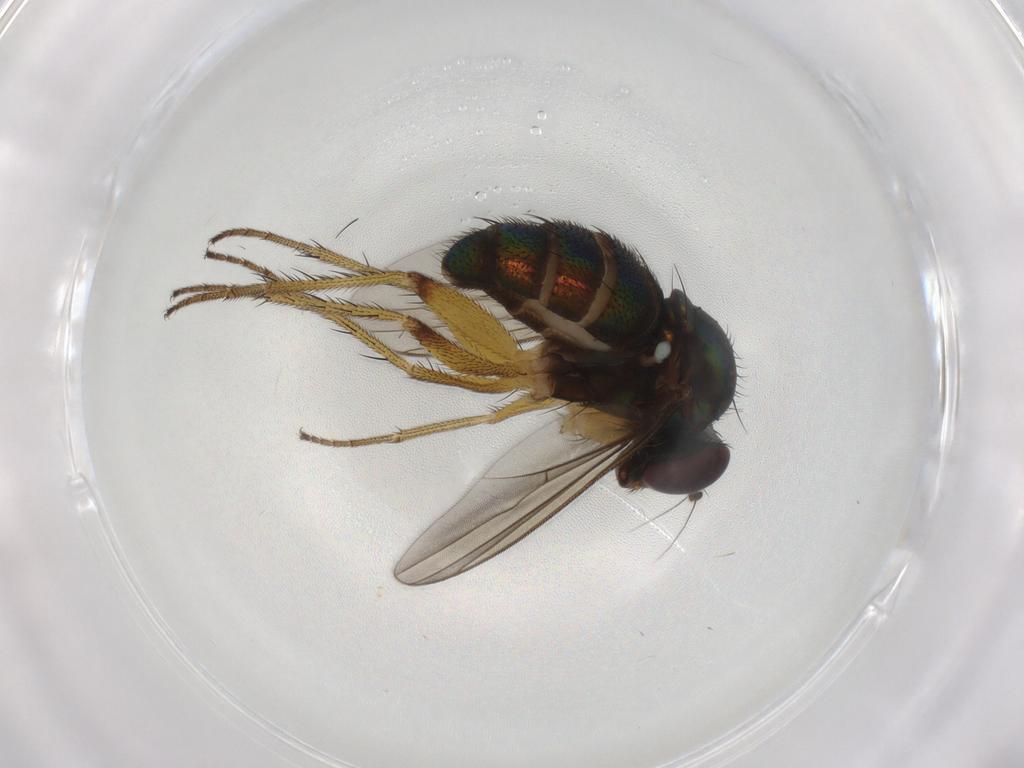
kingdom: Animalia
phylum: Arthropoda
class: Insecta
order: Diptera
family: Dolichopodidae
